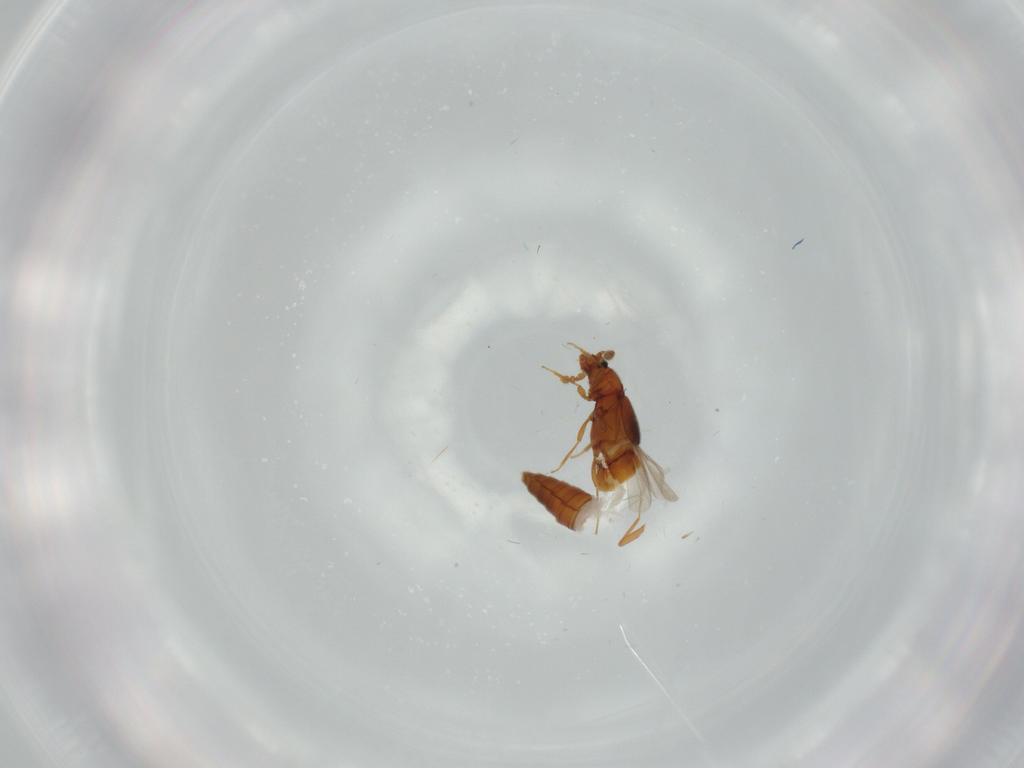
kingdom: Animalia
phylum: Arthropoda
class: Insecta
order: Coleoptera
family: Staphylinidae
